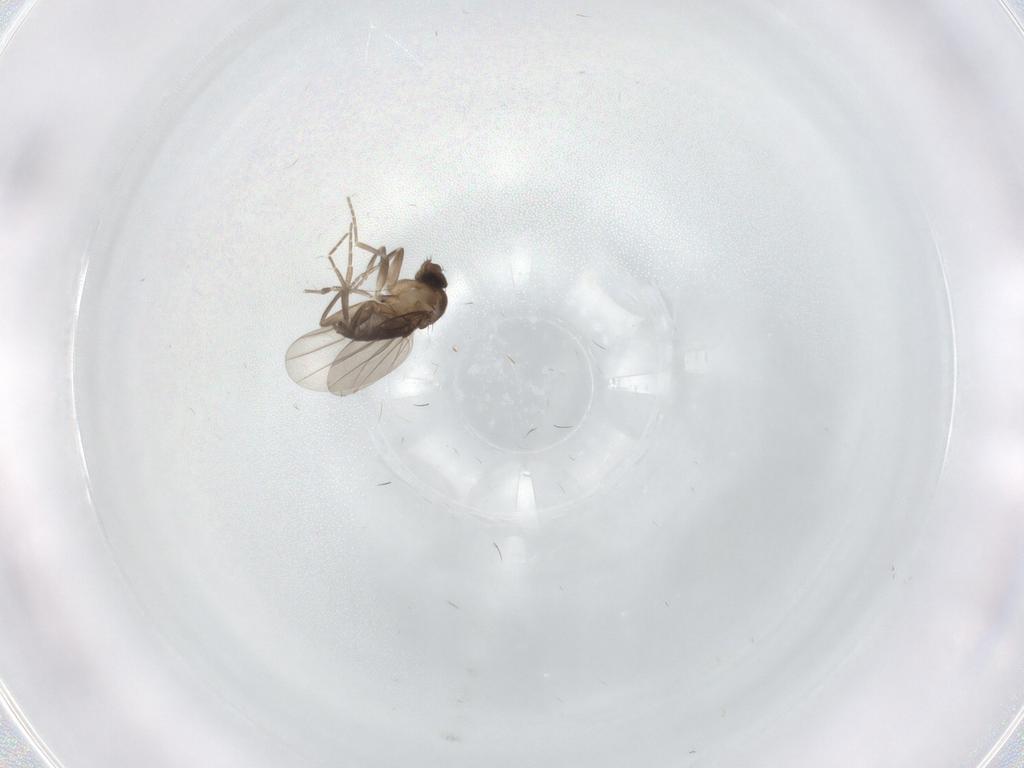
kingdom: Animalia
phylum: Arthropoda
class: Insecta
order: Diptera
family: Phoridae
